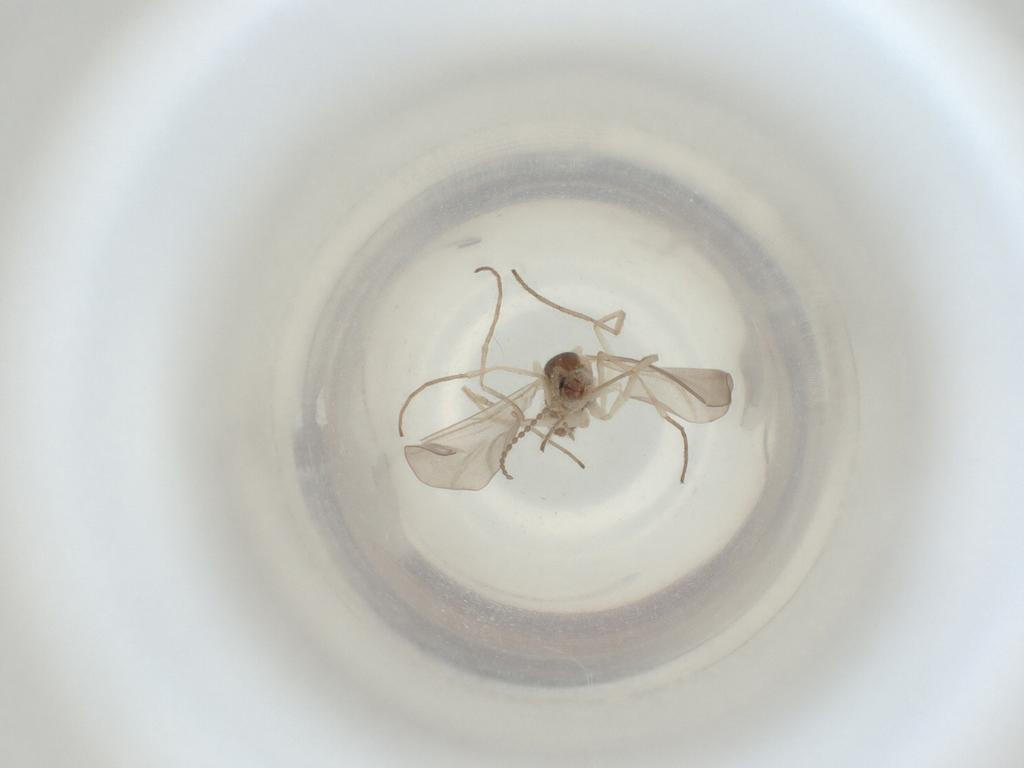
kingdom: Animalia
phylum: Arthropoda
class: Insecta
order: Diptera
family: Cecidomyiidae
